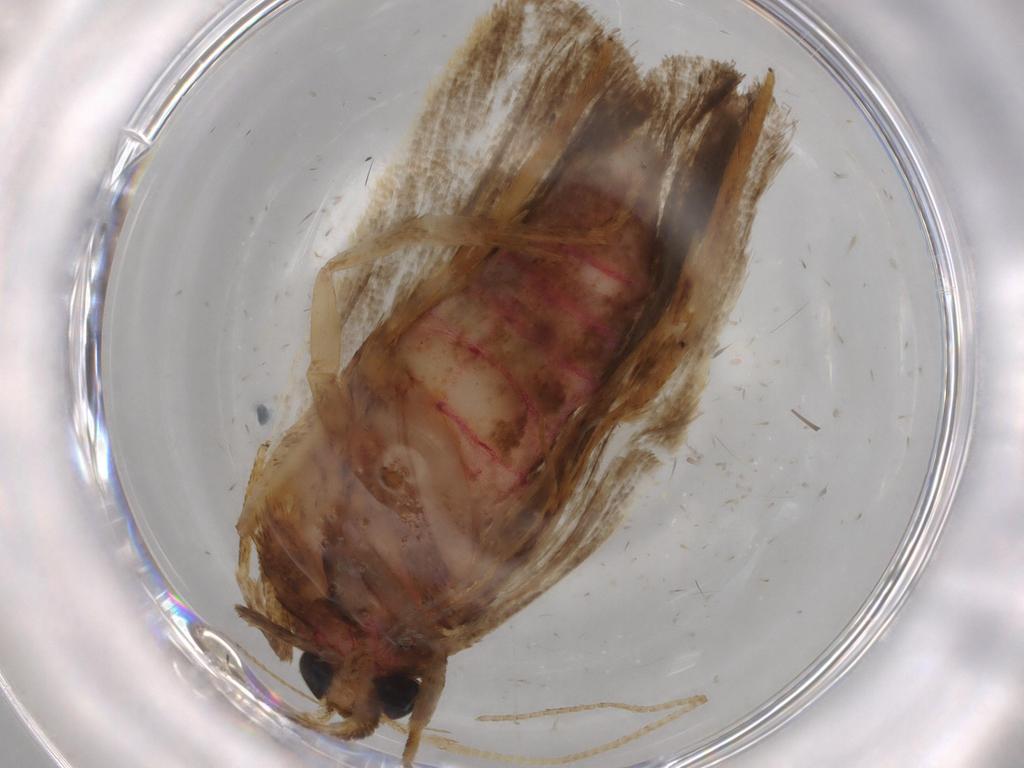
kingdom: Animalia
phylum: Arthropoda
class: Insecta
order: Lepidoptera
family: Autostichidae
